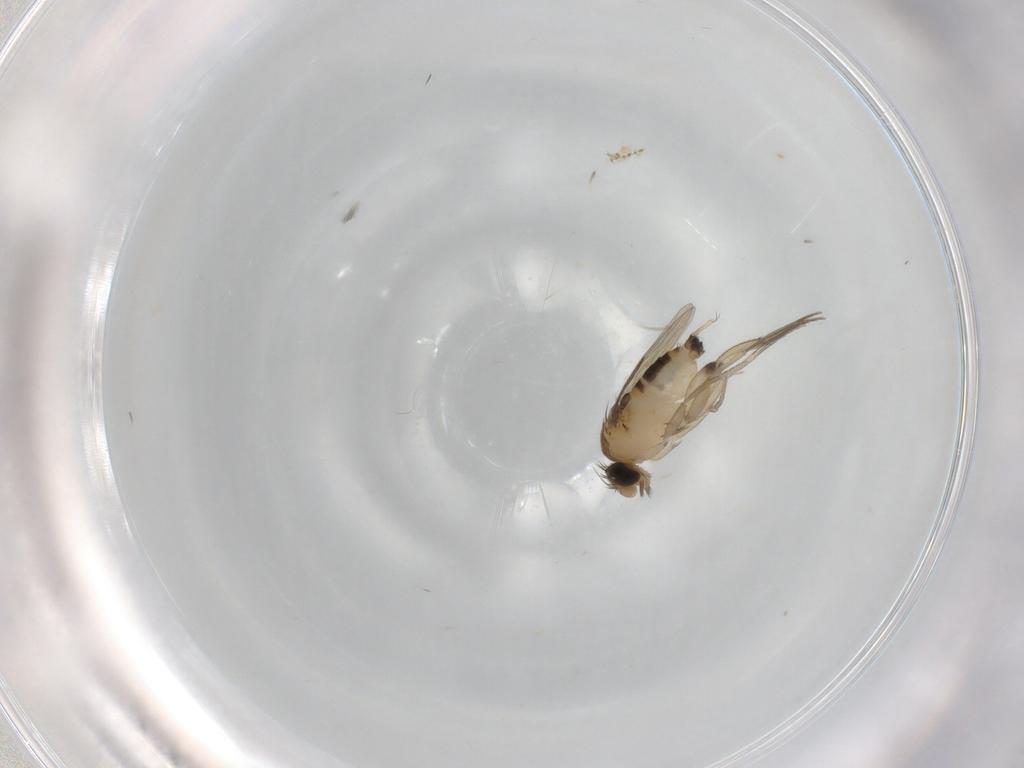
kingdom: Animalia
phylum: Arthropoda
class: Insecta
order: Diptera
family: Phoridae
